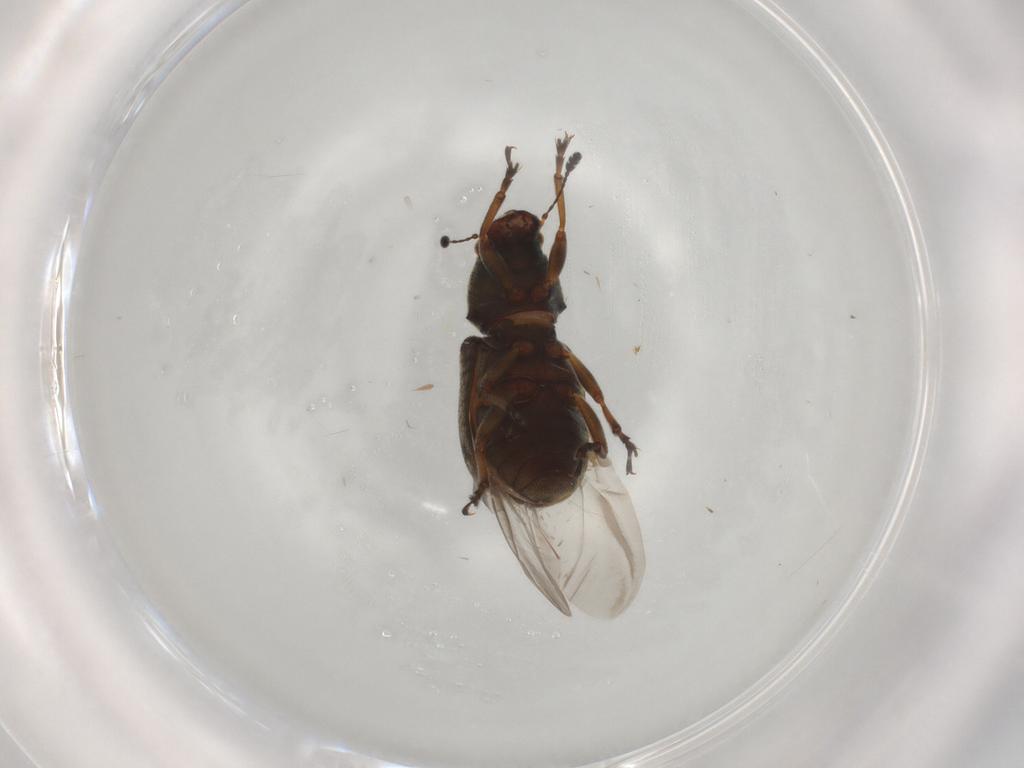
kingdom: Animalia
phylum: Arthropoda
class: Insecta
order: Coleoptera
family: Anthribidae
